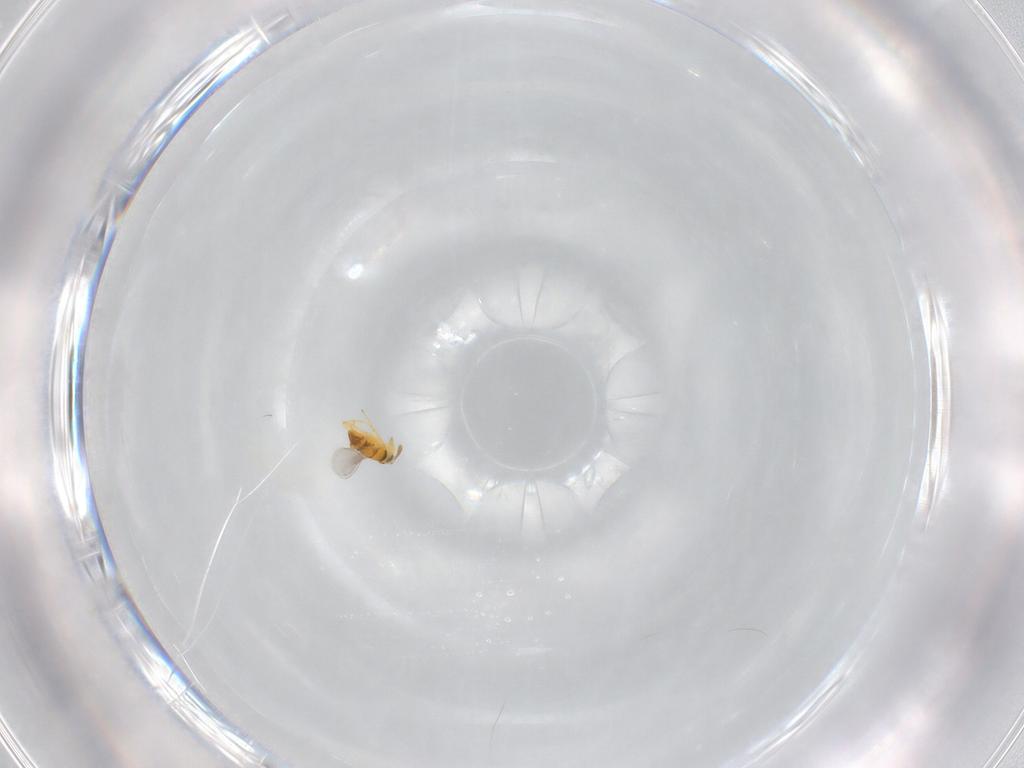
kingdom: Animalia
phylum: Arthropoda
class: Insecta
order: Hymenoptera
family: Encyrtidae
